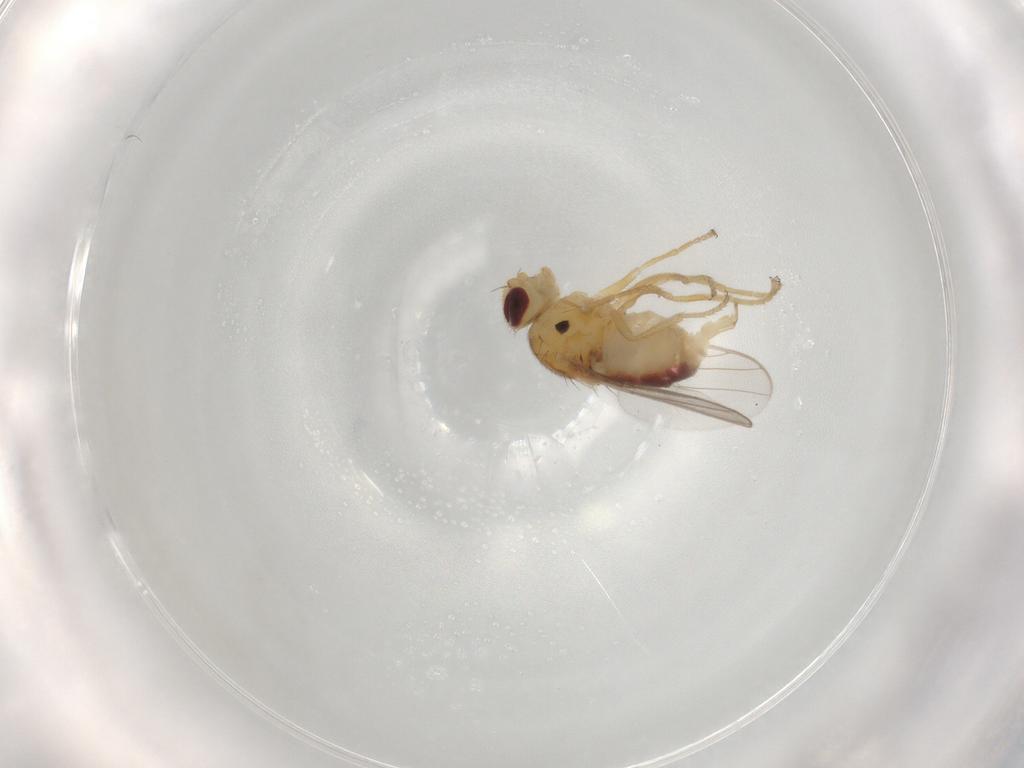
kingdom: Animalia
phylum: Arthropoda
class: Insecta
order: Diptera
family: Chloropidae
